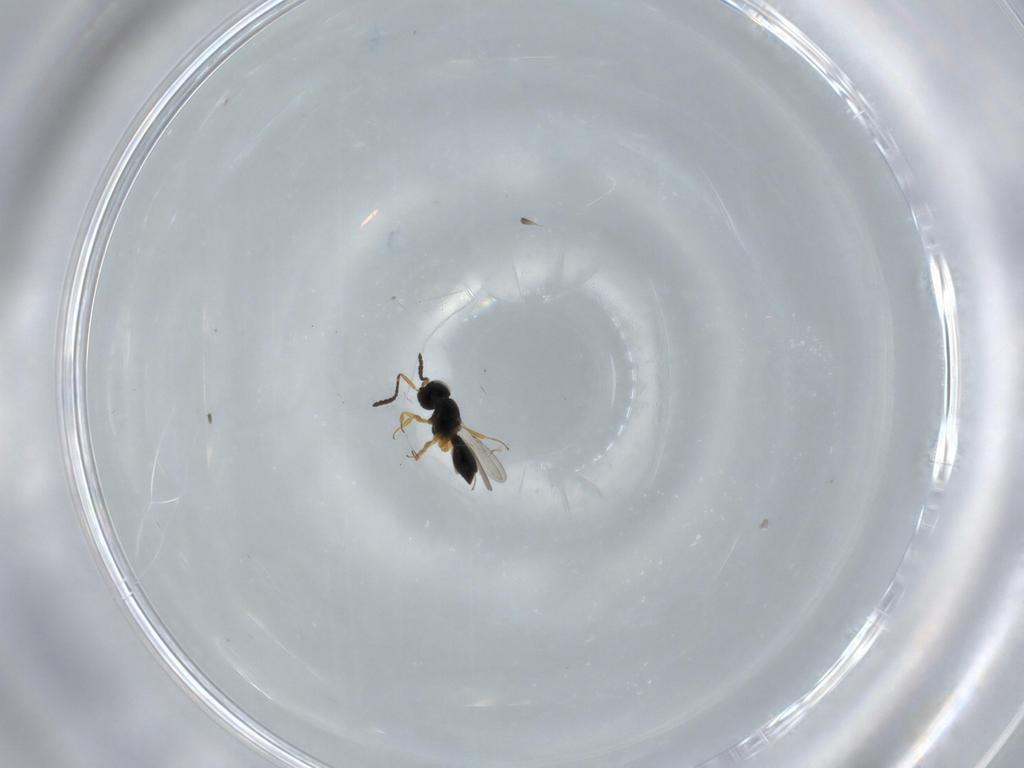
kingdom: Animalia
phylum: Arthropoda
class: Insecta
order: Hymenoptera
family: Scelionidae
